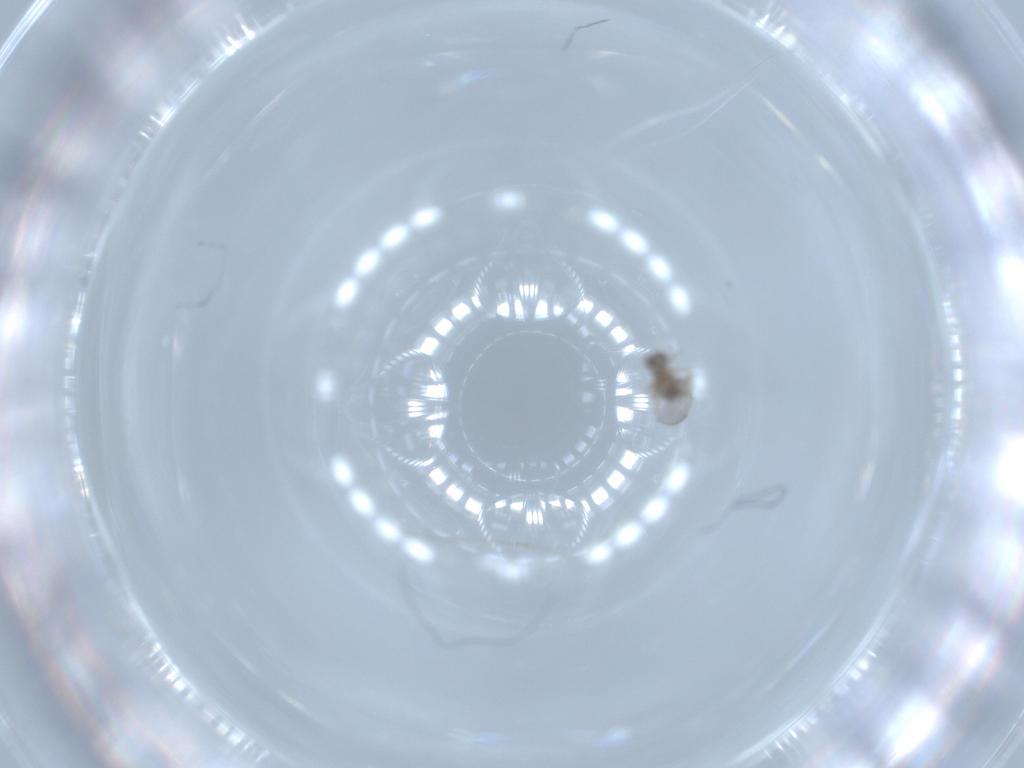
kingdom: Animalia
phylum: Arthropoda
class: Insecta
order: Diptera
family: Cecidomyiidae
